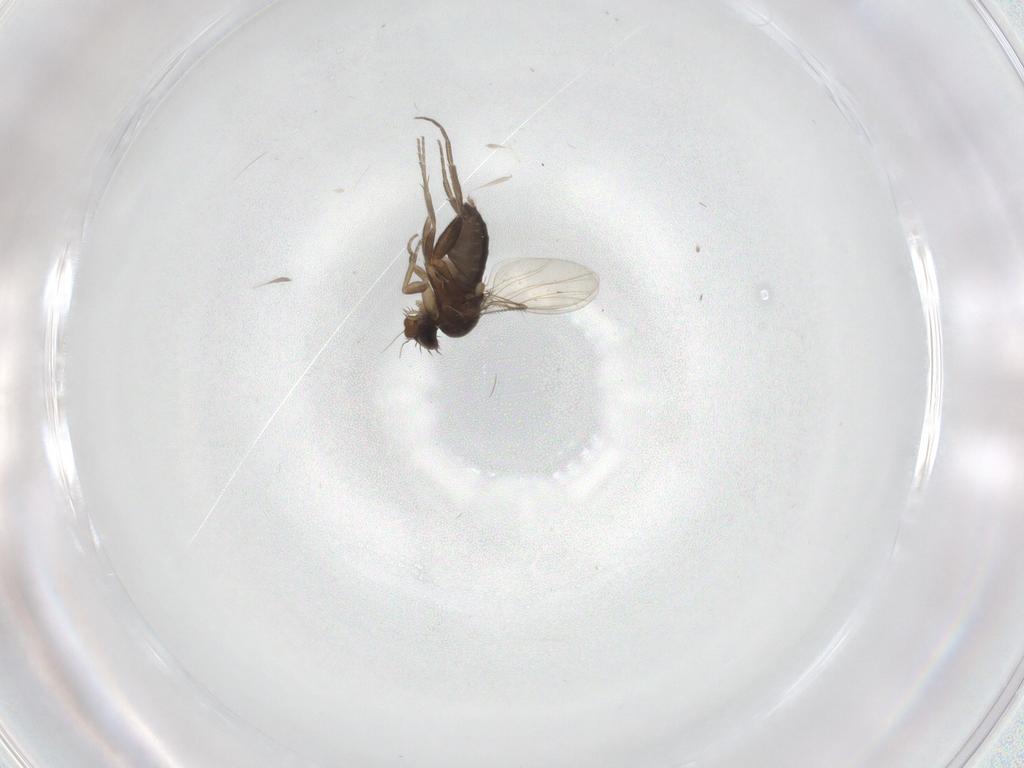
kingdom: Animalia
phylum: Arthropoda
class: Insecta
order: Diptera
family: Phoridae
